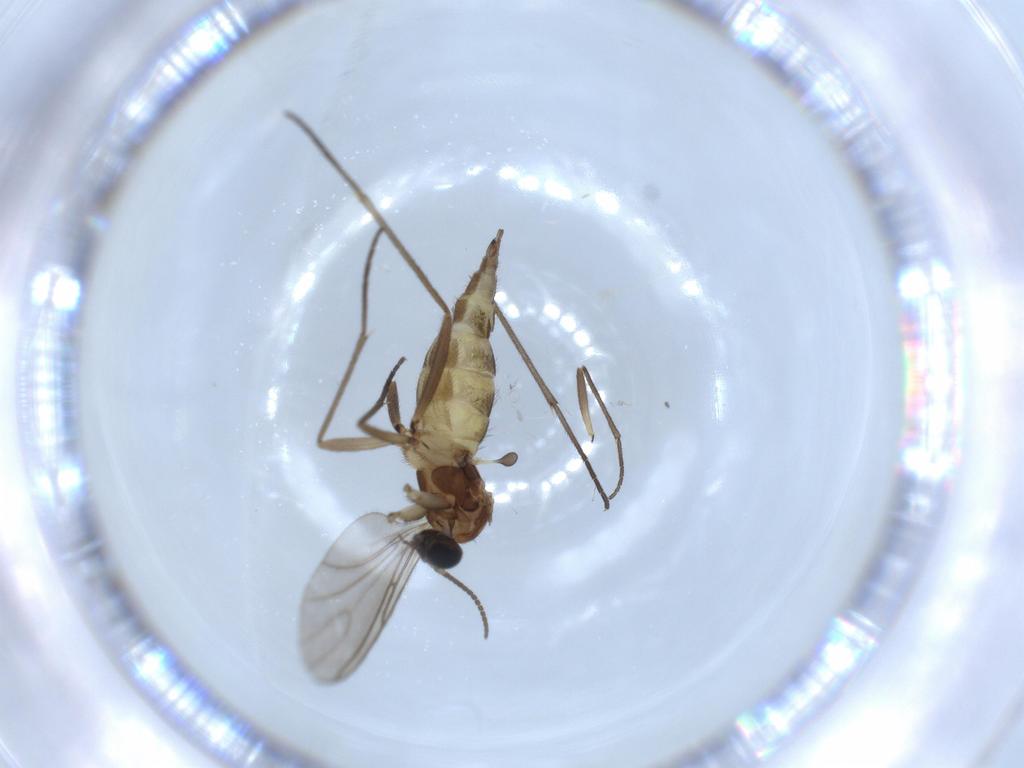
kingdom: Animalia
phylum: Arthropoda
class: Insecta
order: Diptera
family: Sciaridae
